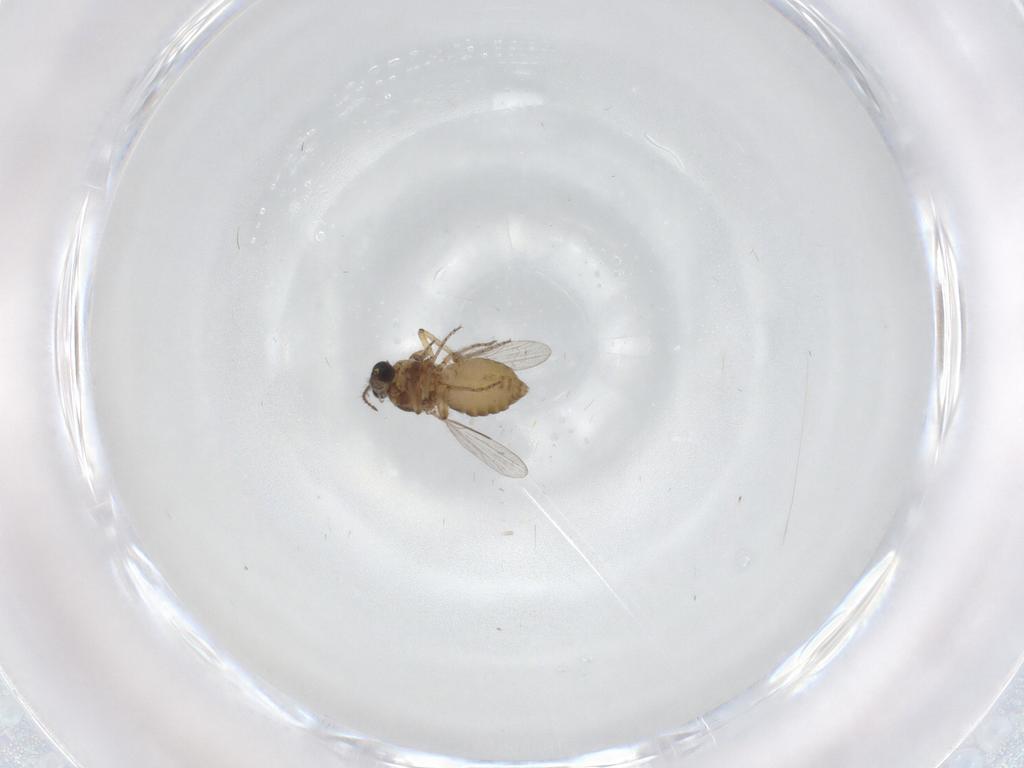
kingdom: Animalia
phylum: Arthropoda
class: Insecta
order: Diptera
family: Ceratopogonidae
